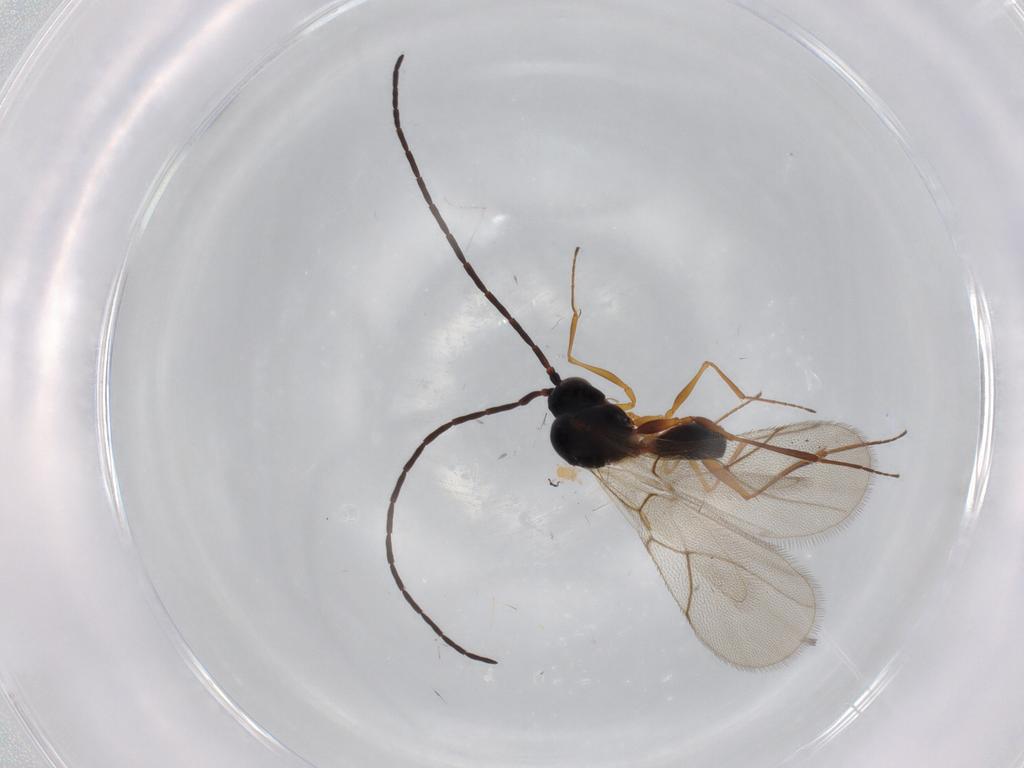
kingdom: Animalia
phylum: Arthropoda
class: Insecta
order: Hymenoptera
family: Figitidae
